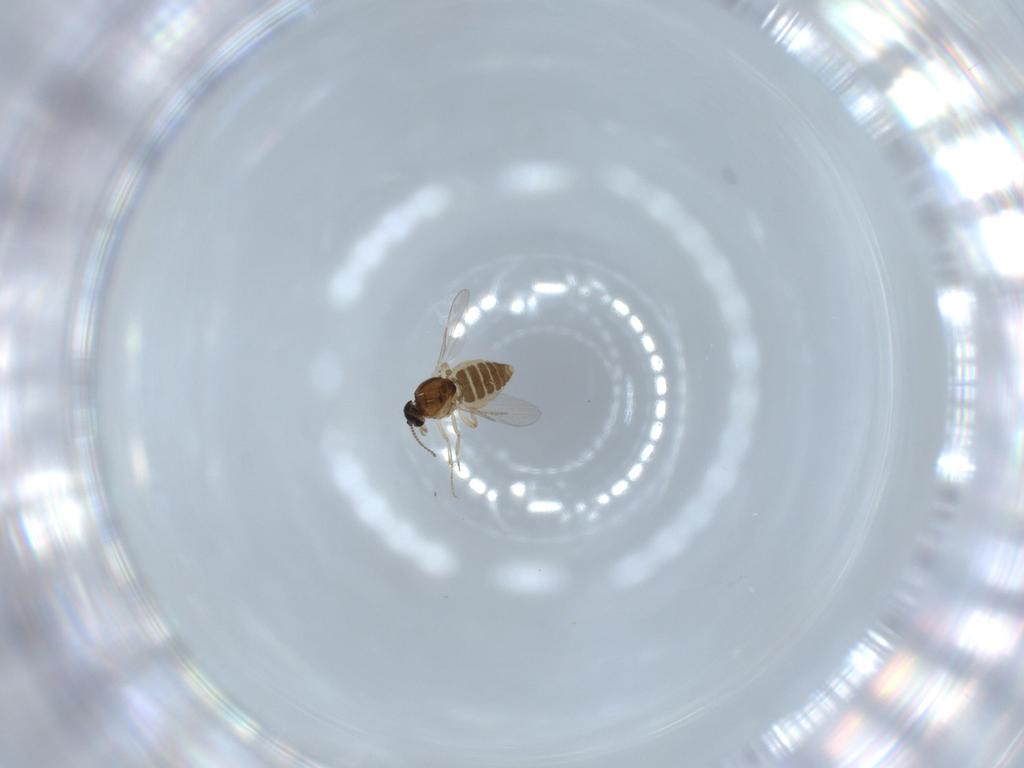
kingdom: Animalia
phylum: Arthropoda
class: Insecta
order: Diptera
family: Ceratopogonidae
